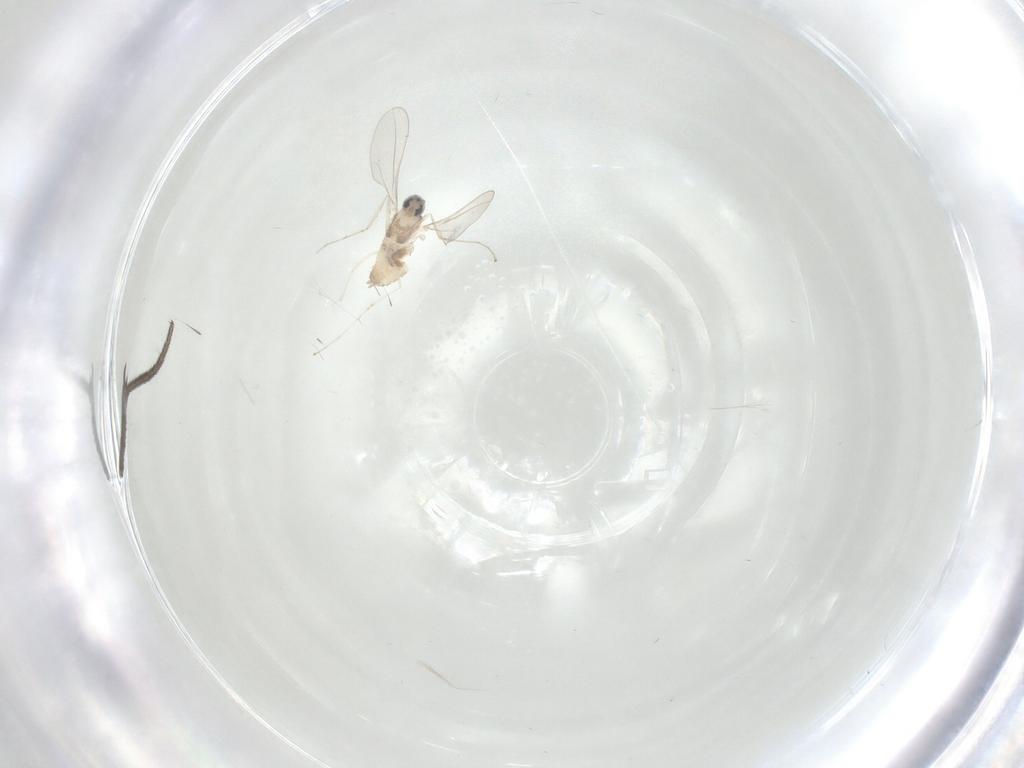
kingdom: Animalia
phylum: Arthropoda
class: Insecta
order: Diptera
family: Cecidomyiidae
